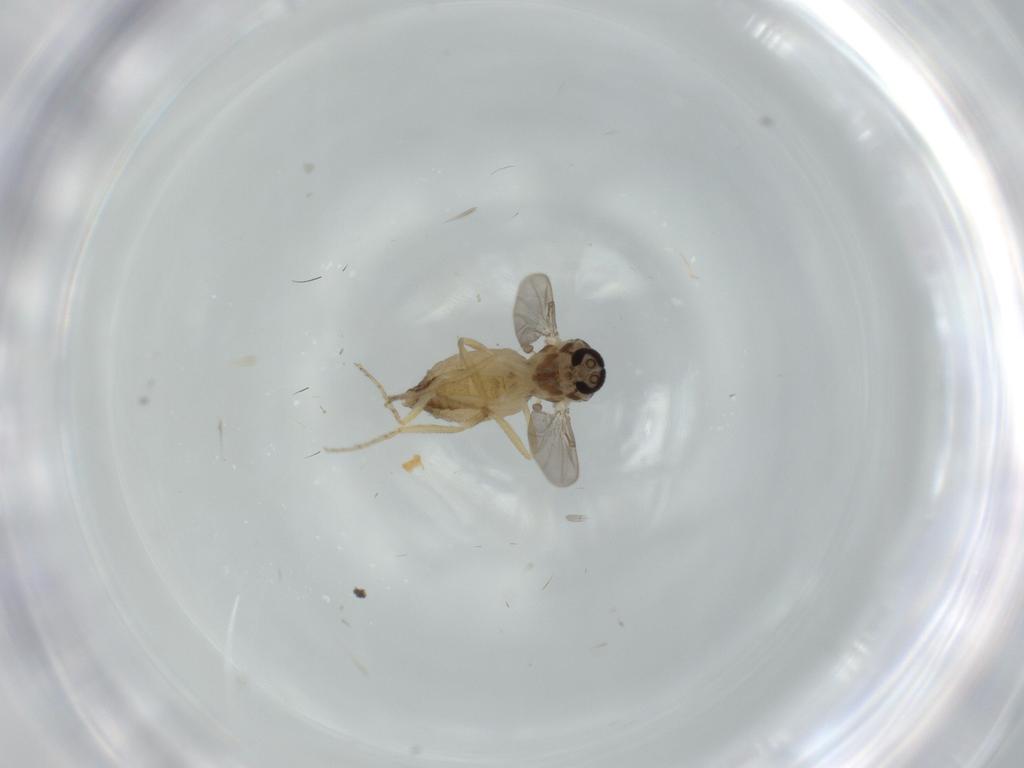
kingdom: Animalia
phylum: Arthropoda
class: Insecta
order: Diptera
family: Ceratopogonidae
